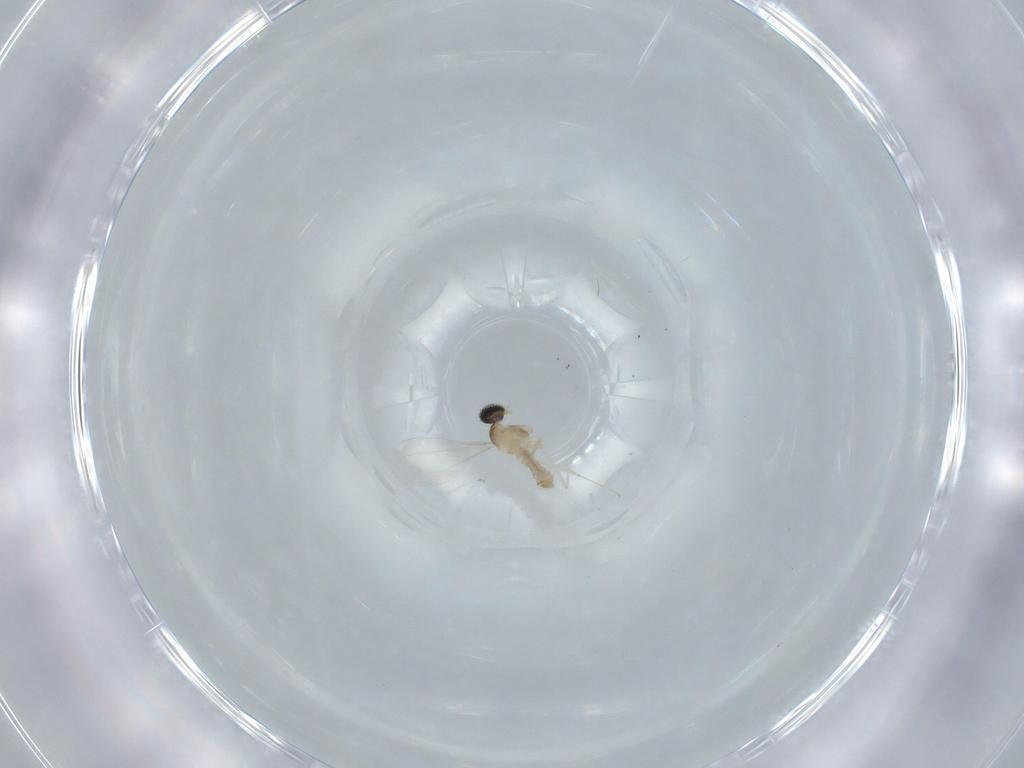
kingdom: Animalia
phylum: Arthropoda
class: Insecta
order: Diptera
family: Cecidomyiidae
